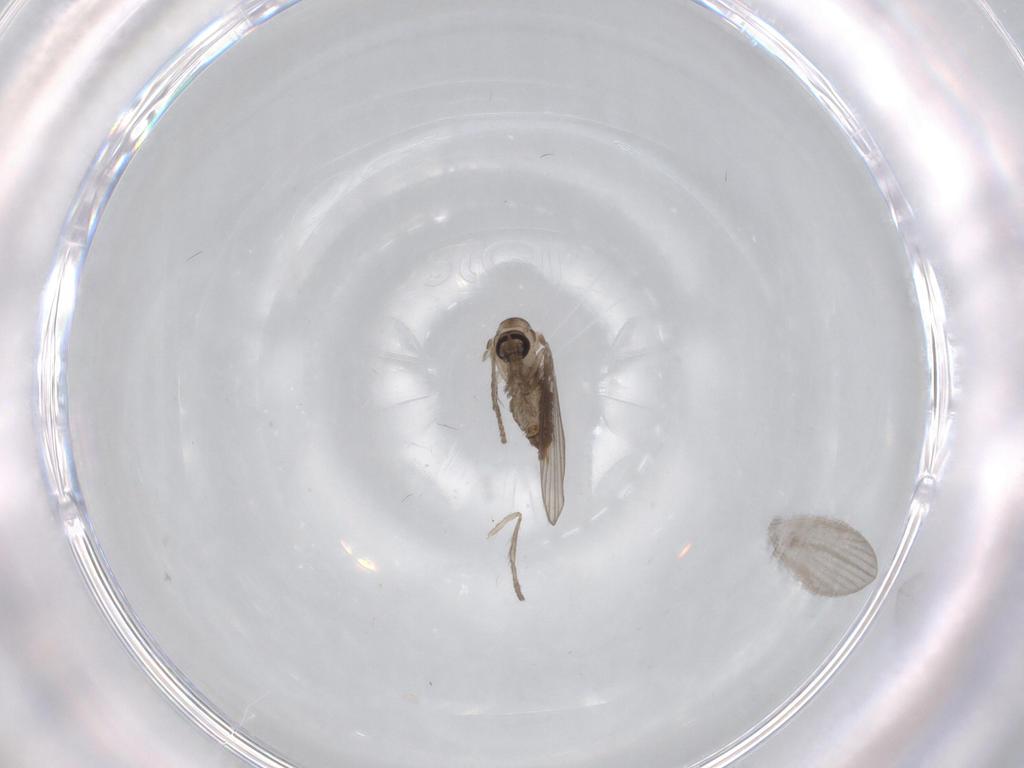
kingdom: Animalia
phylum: Arthropoda
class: Insecta
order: Diptera
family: Psychodidae
